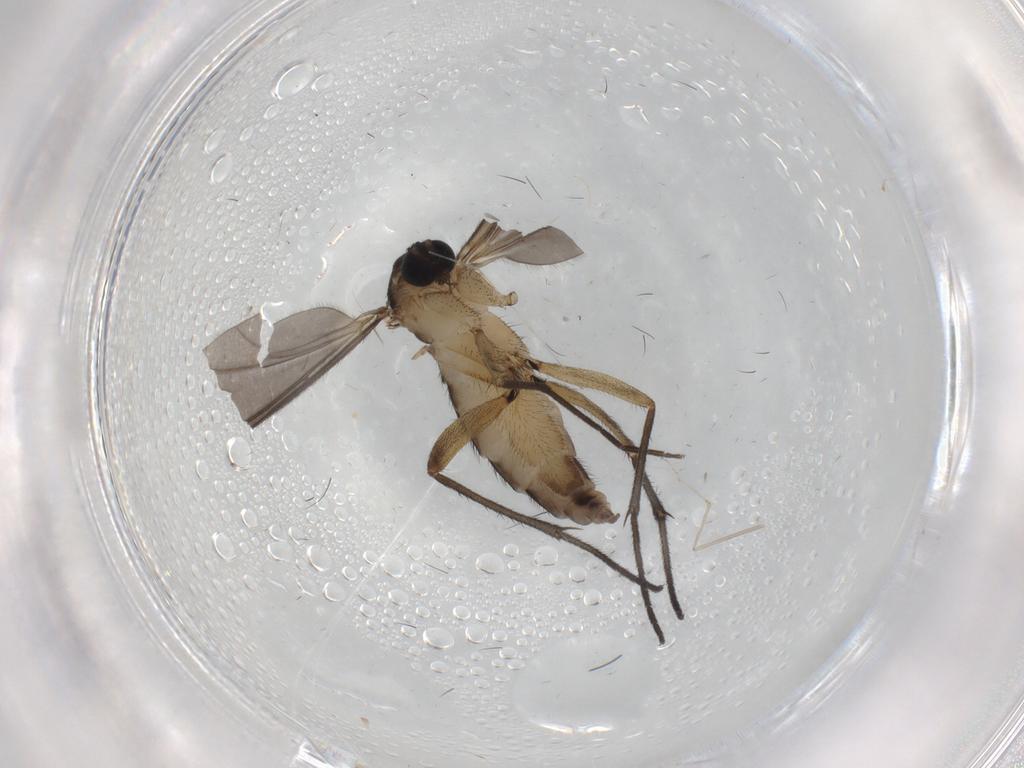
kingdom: Animalia
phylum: Arthropoda
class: Insecta
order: Diptera
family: Sciaridae
